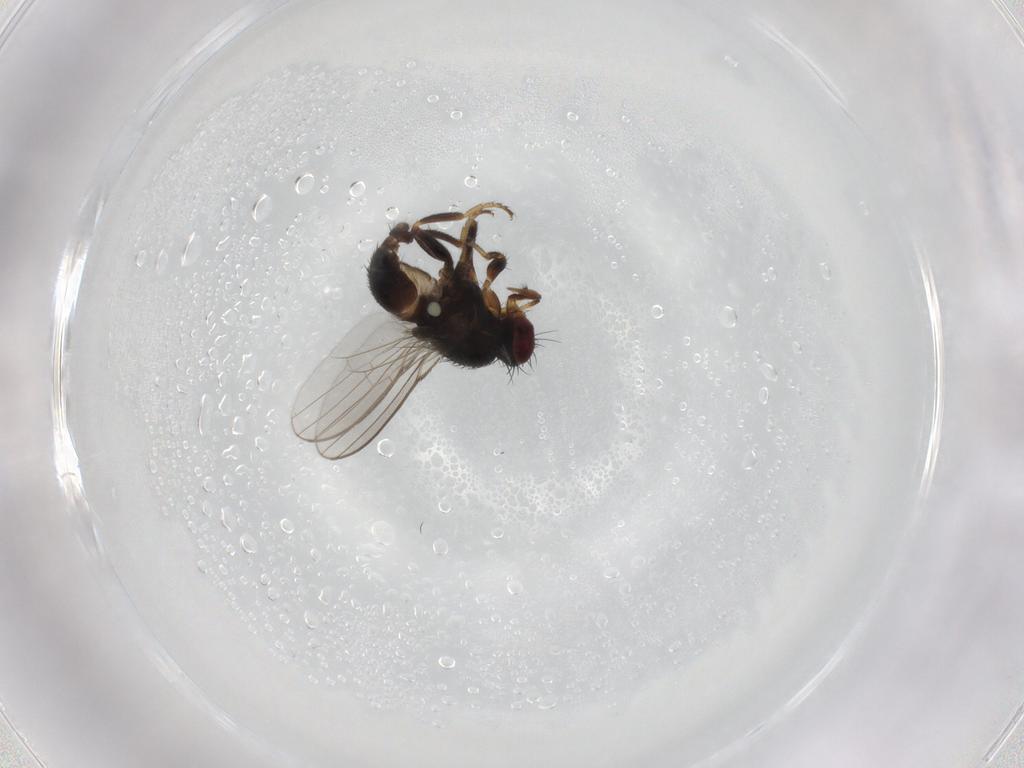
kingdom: Animalia
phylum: Arthropoda
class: Insecta
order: Diptera
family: Milichiidae
